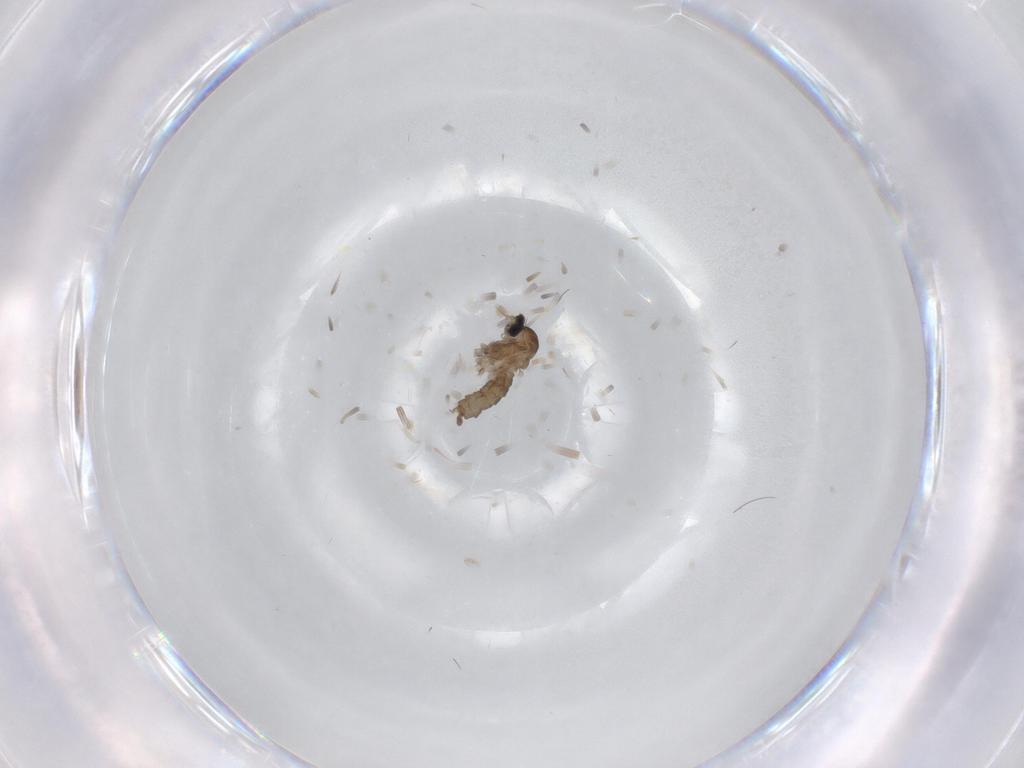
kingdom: Animalia
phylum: Arthropoda
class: Insecta
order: Diptera
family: Cecidomyiidae
